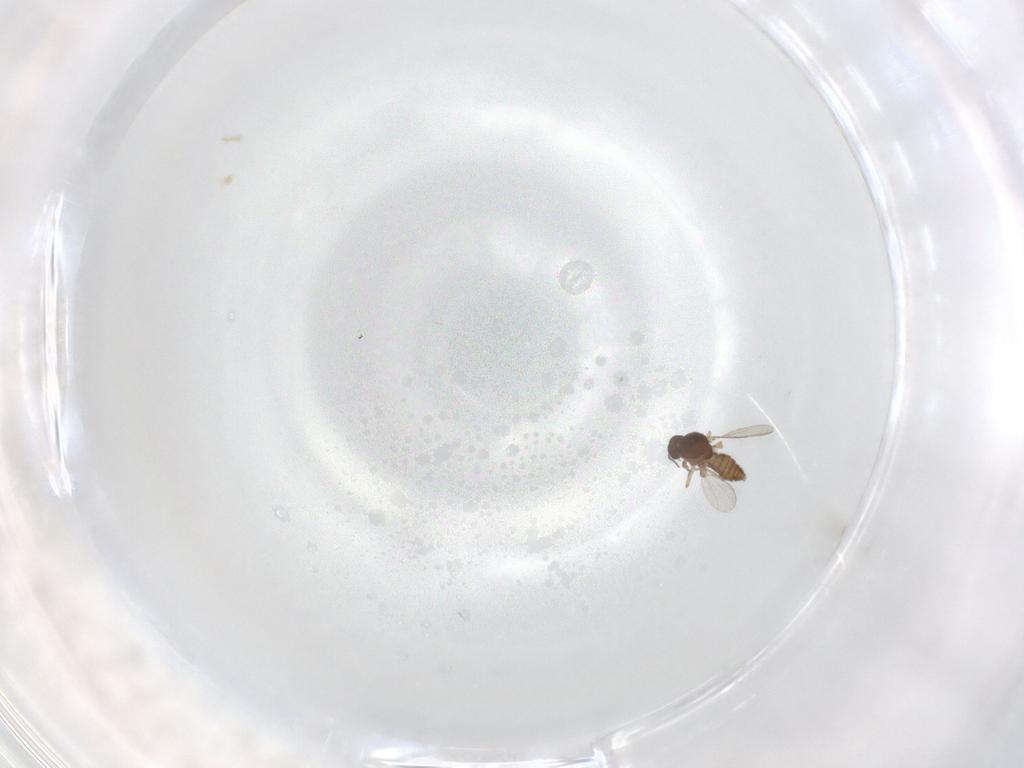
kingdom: Animalia
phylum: Arthropoda
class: Insecta
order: Diptera
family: Ceratopogonidae
